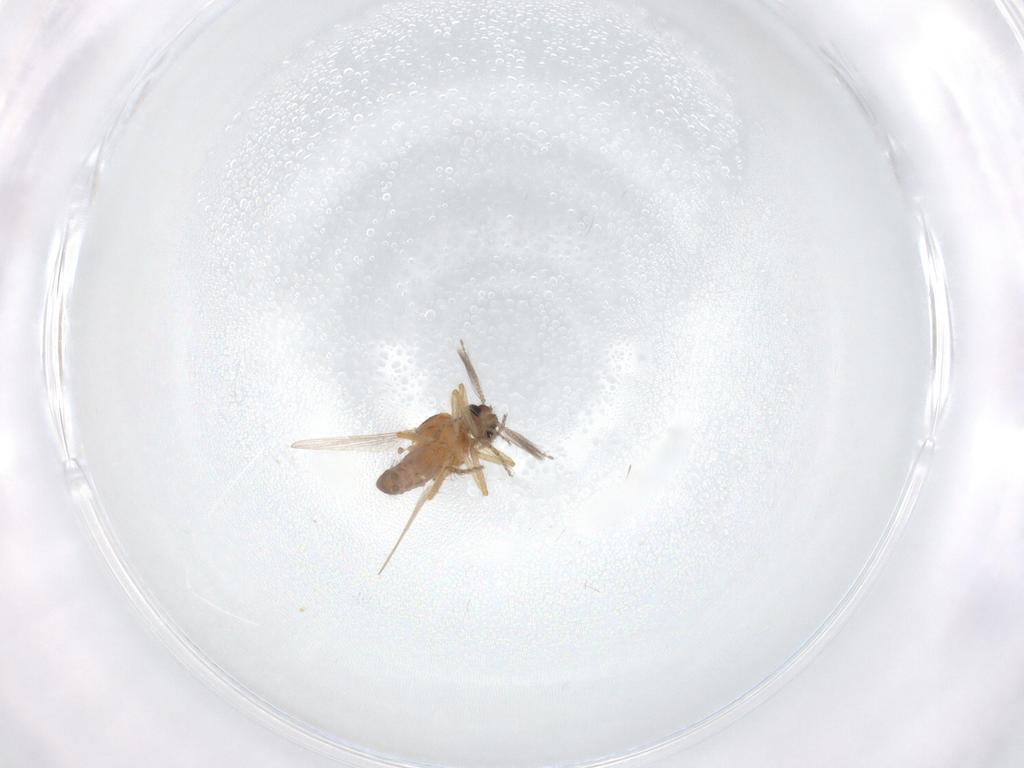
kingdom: Animalia
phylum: Arthropoda
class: Insecta
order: Diptera
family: Ceratopogonidae
